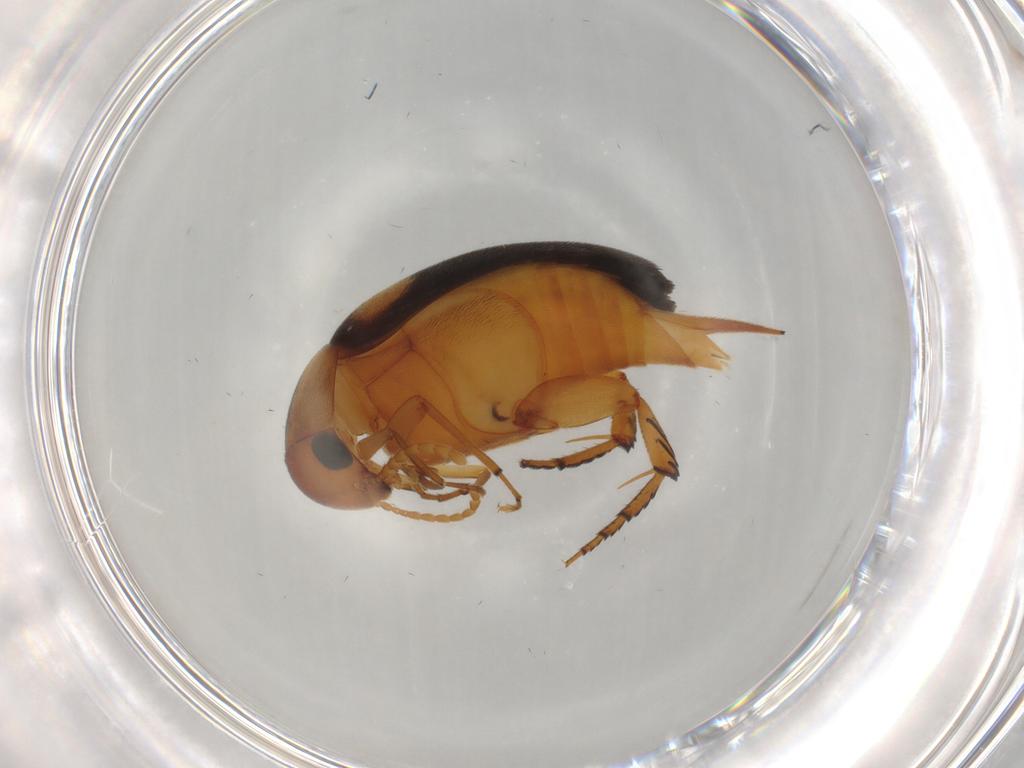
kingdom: Animalia
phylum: Arthropoda
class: Insecta
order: Coleoptera
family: Mordellidae
